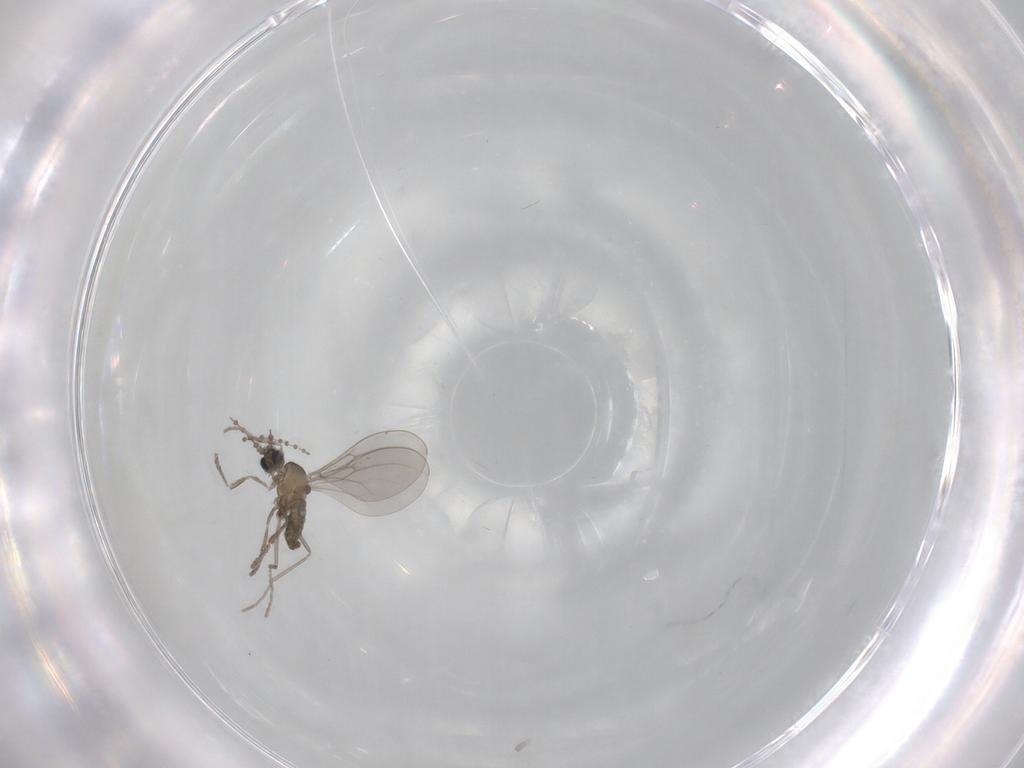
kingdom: Animalia
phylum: Arthropoda
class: Insecta
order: Diptera
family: Cecidomyiidae
